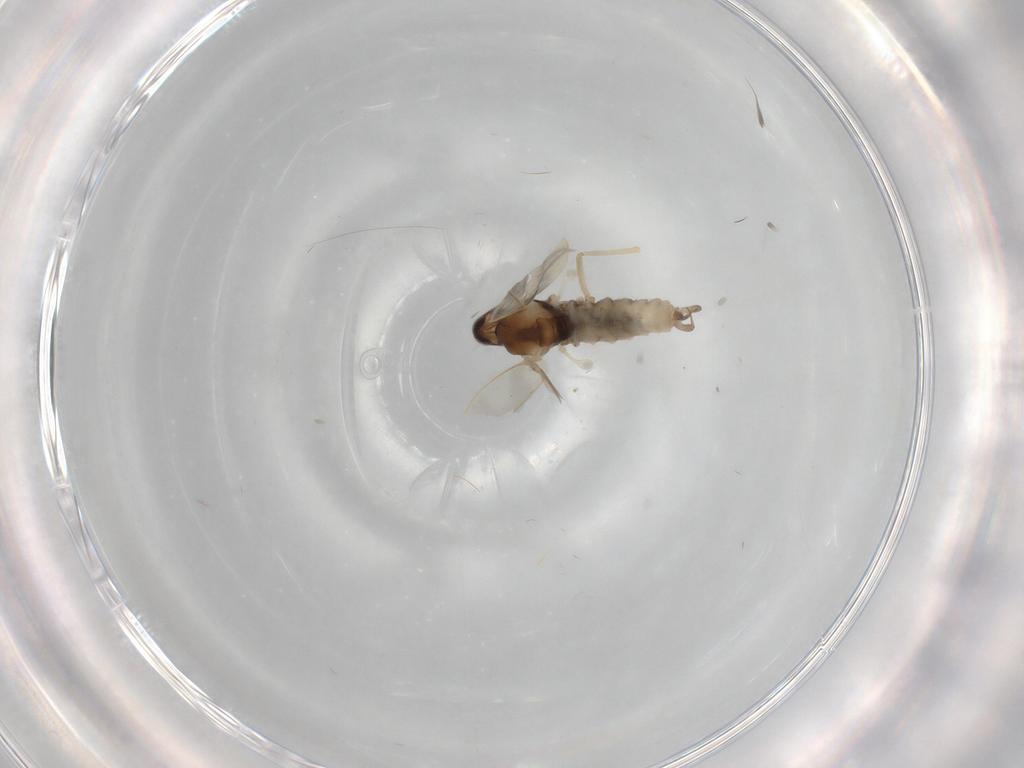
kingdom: Animalia
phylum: Arthropoda
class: Insecta
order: Diptera
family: Cecidomyiidae
